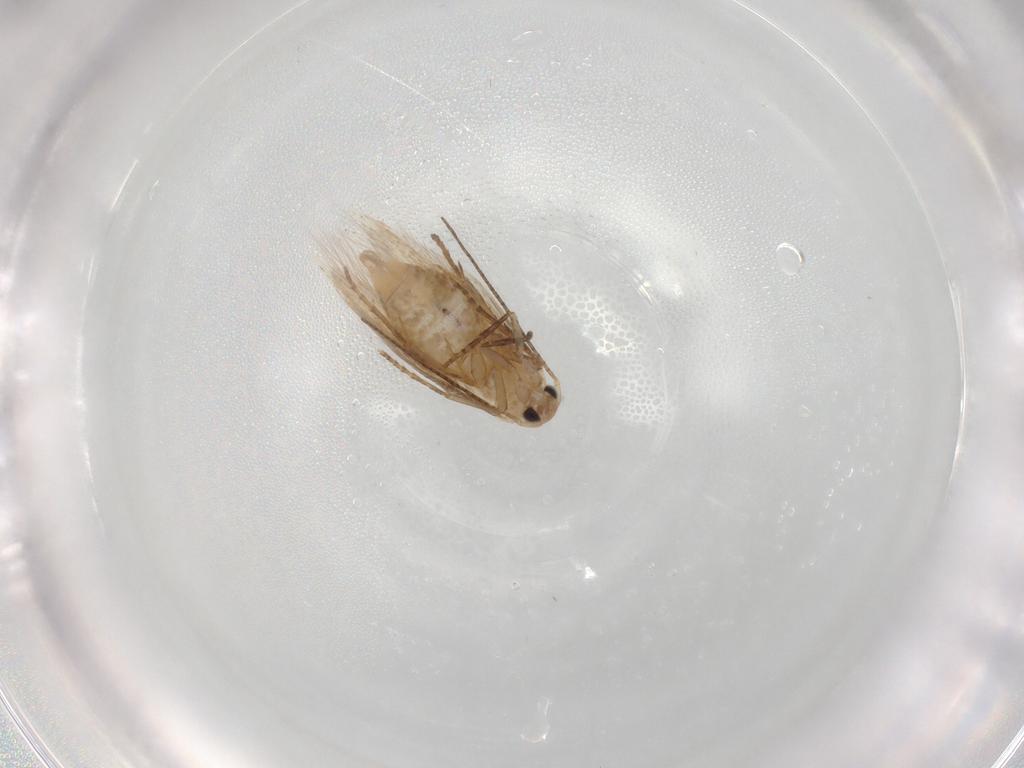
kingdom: Animalia
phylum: Arthropoda
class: Insecta
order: Lepidoptera
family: Bucculatricidae
